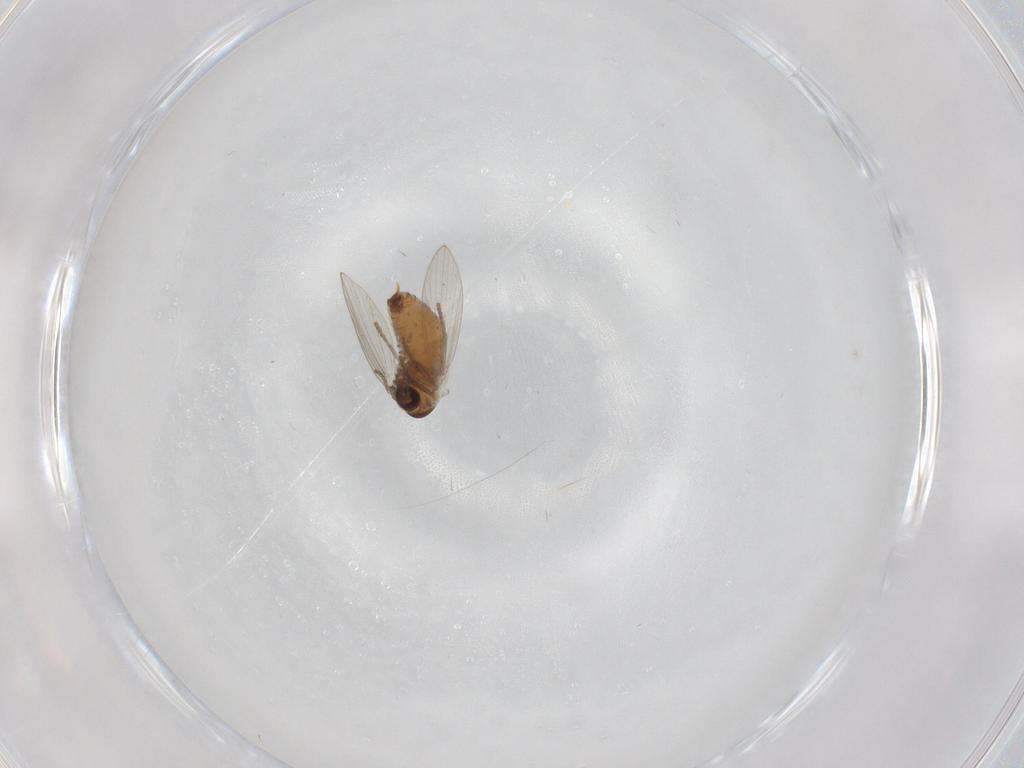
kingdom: Animalia
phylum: Arthropoda
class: Insecta
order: Diptera
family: Psychodidae
